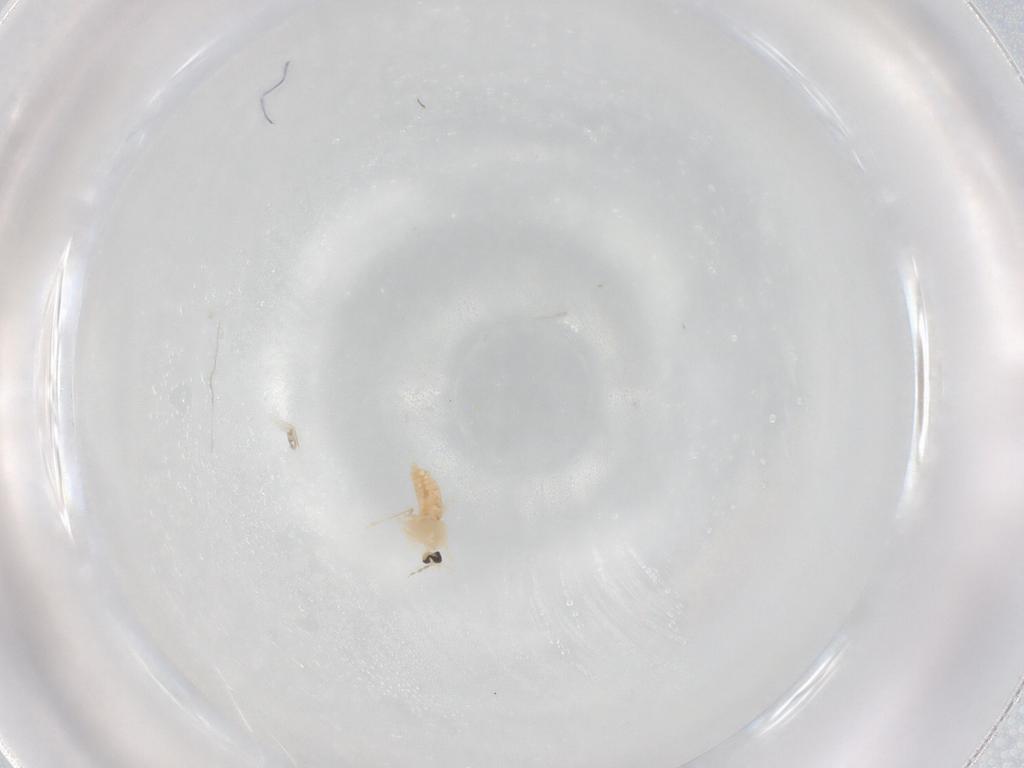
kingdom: Animalia
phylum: Arthropoda
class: Insecta
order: Diptera
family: Cecidomyiidae
